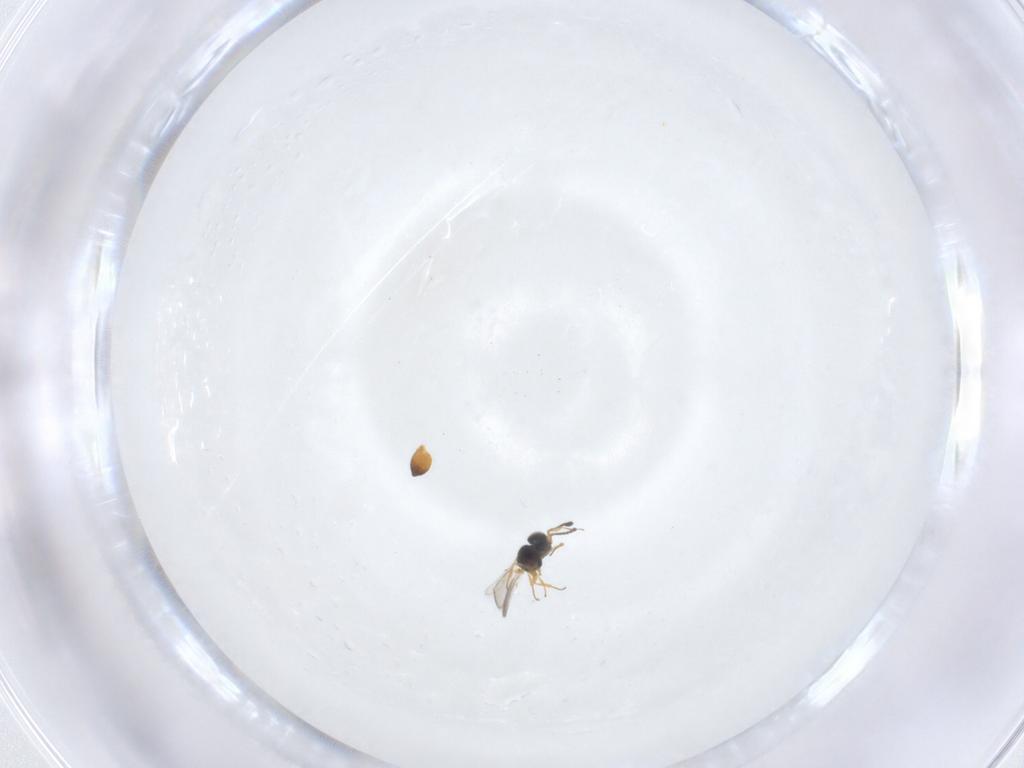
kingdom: Animalia
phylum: Arthropoda
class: Insecta
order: Hymenoptera
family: Scelionidae
